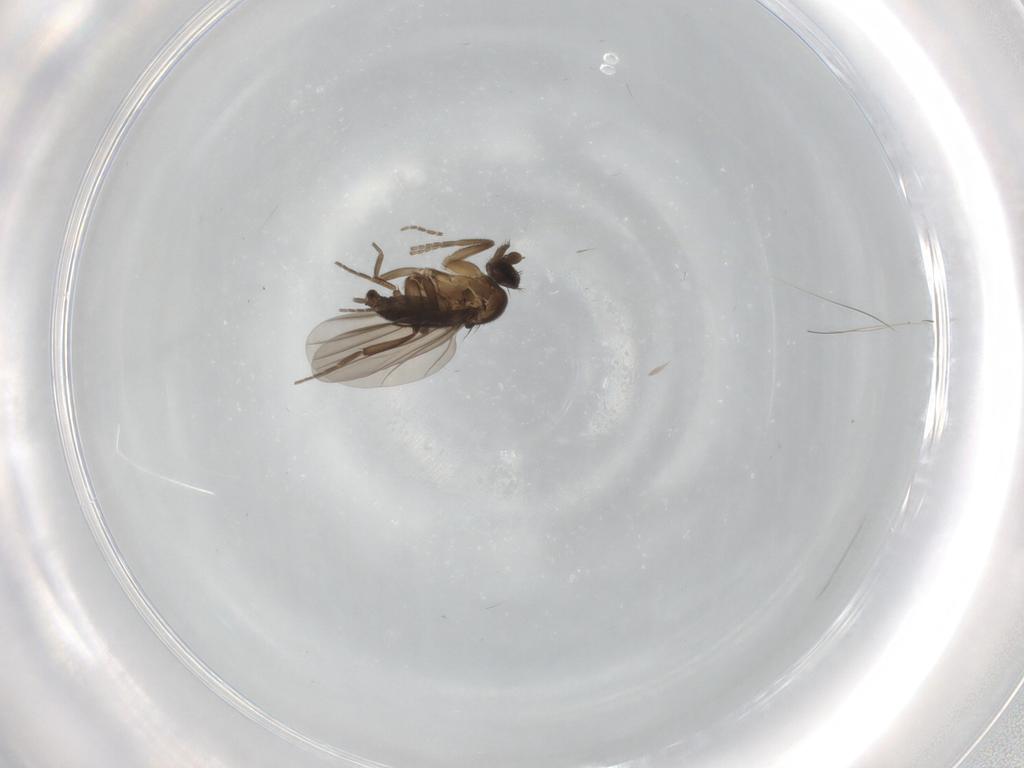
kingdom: Animalia
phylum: Arthropoda
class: Insecta
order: Diptera
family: Phoridae
